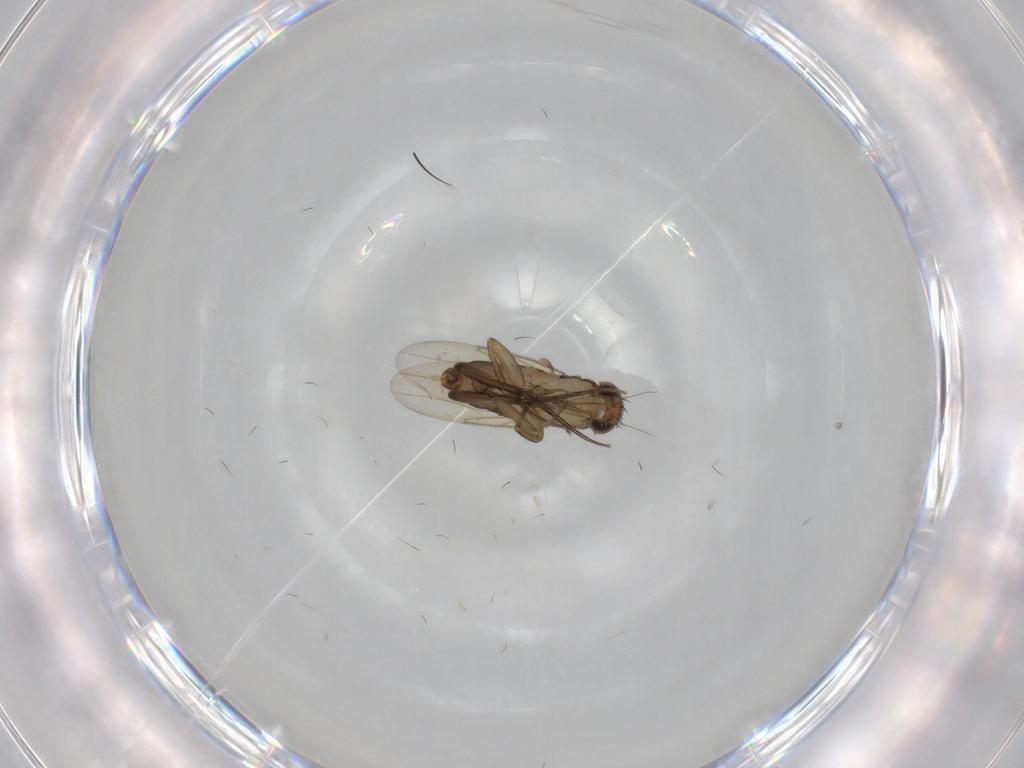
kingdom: Animalia
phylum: Arthropoda
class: Insecta
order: Diptera
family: Phoridae
